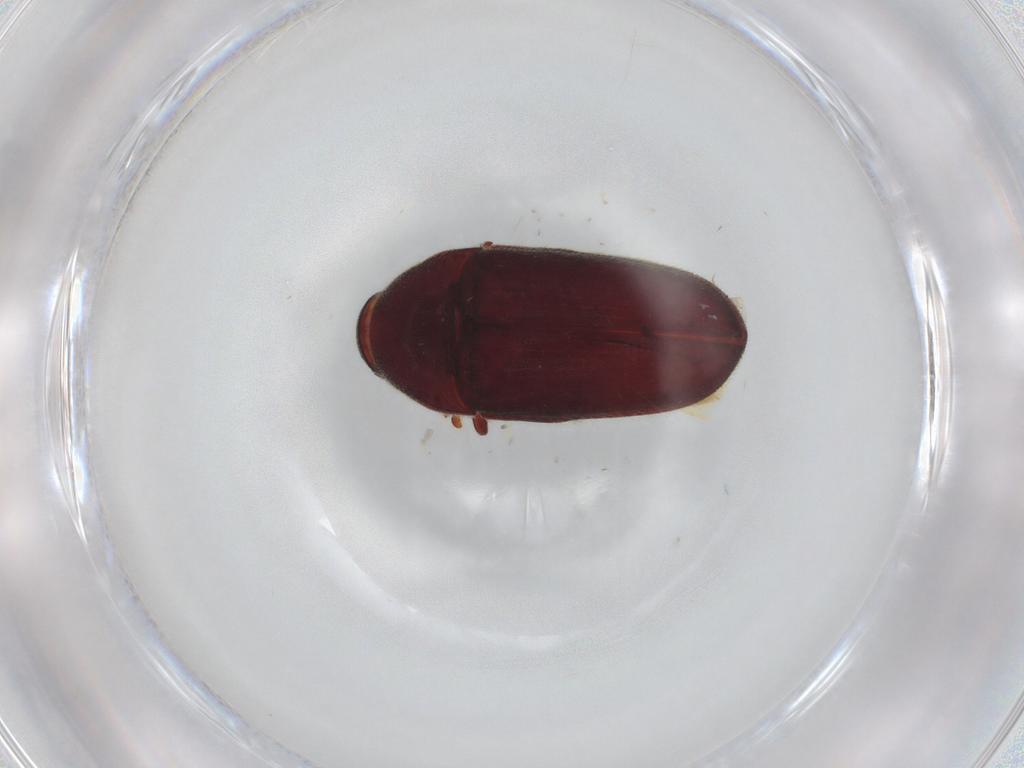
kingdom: Animalia
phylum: Arthropoda
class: Insecta
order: Coleoptera
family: Throscidae
